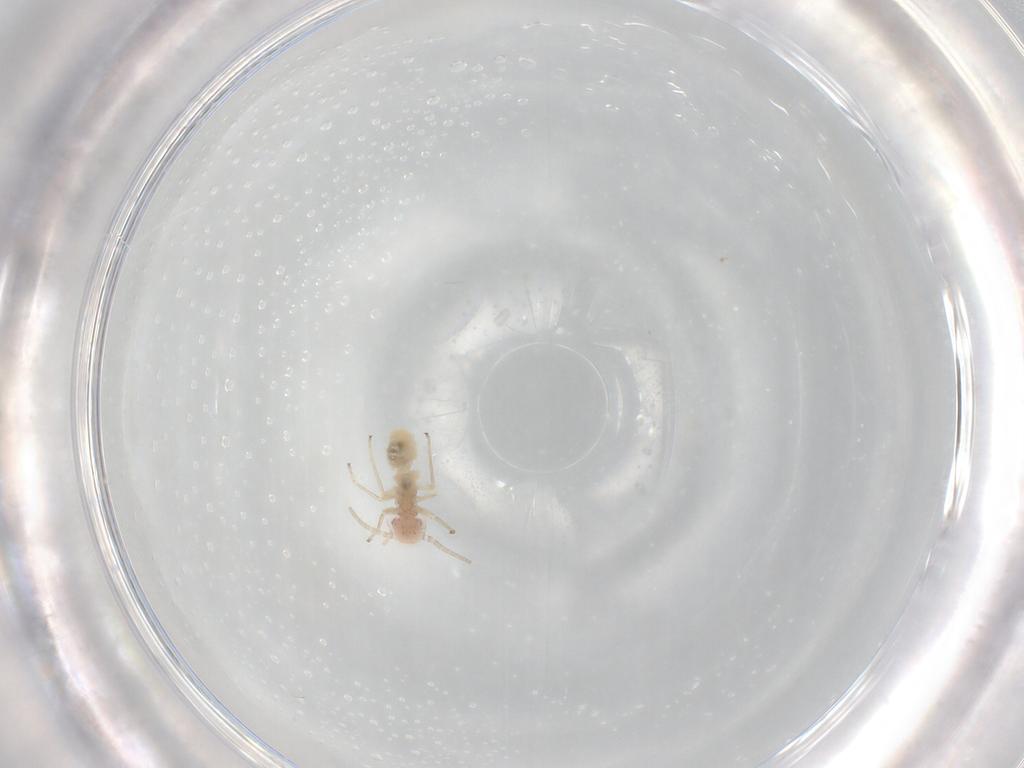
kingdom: Animalia
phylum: Arthropoda
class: Insecta
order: Psocodea
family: Caeciliusidae
